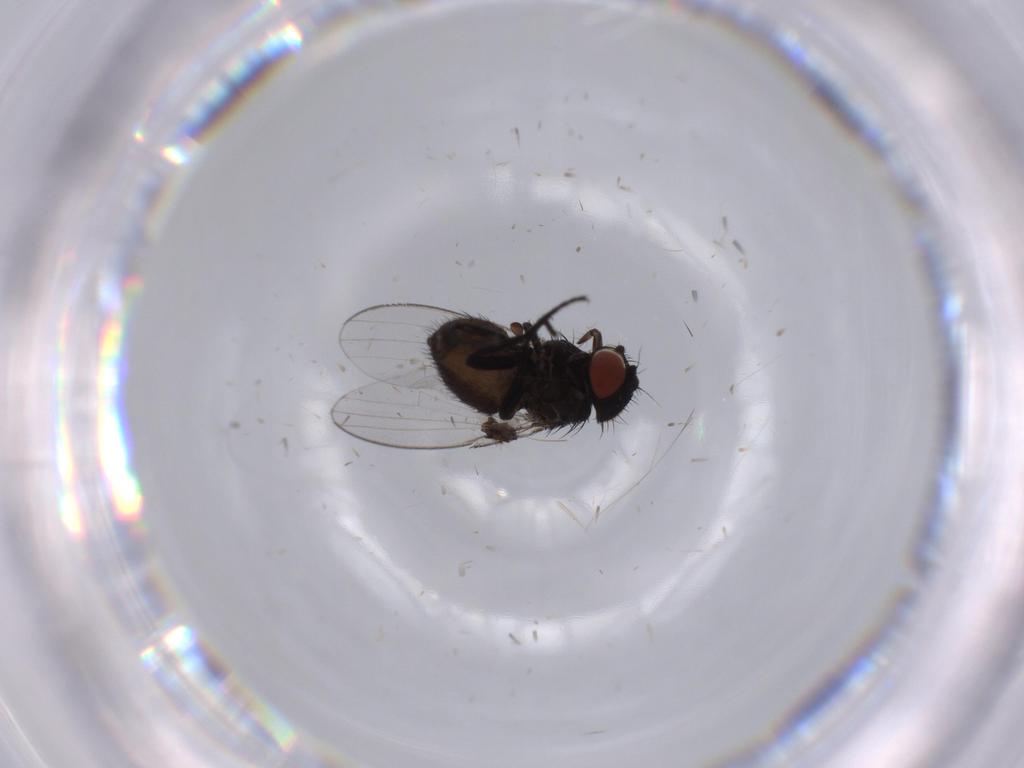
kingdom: Animalia
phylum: Arthropoda
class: Insecta
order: Diptera
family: Milichiidae
